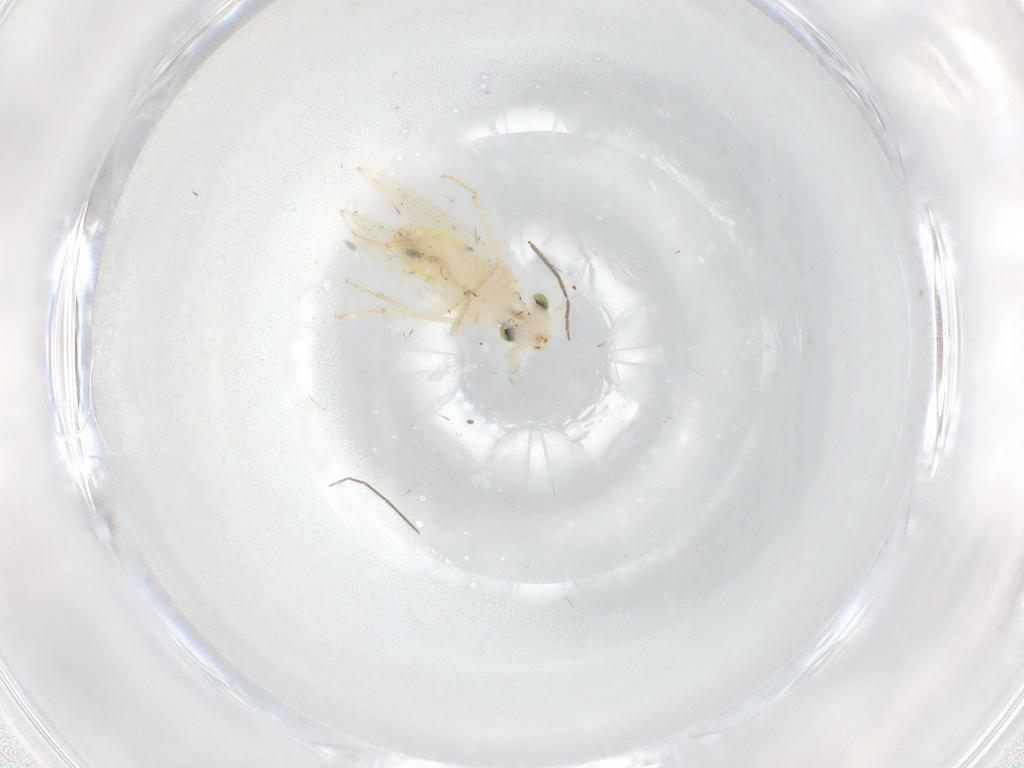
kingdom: Animalia
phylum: Arthropoda
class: Insecta
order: Psocodea
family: Lepidopsocidae
